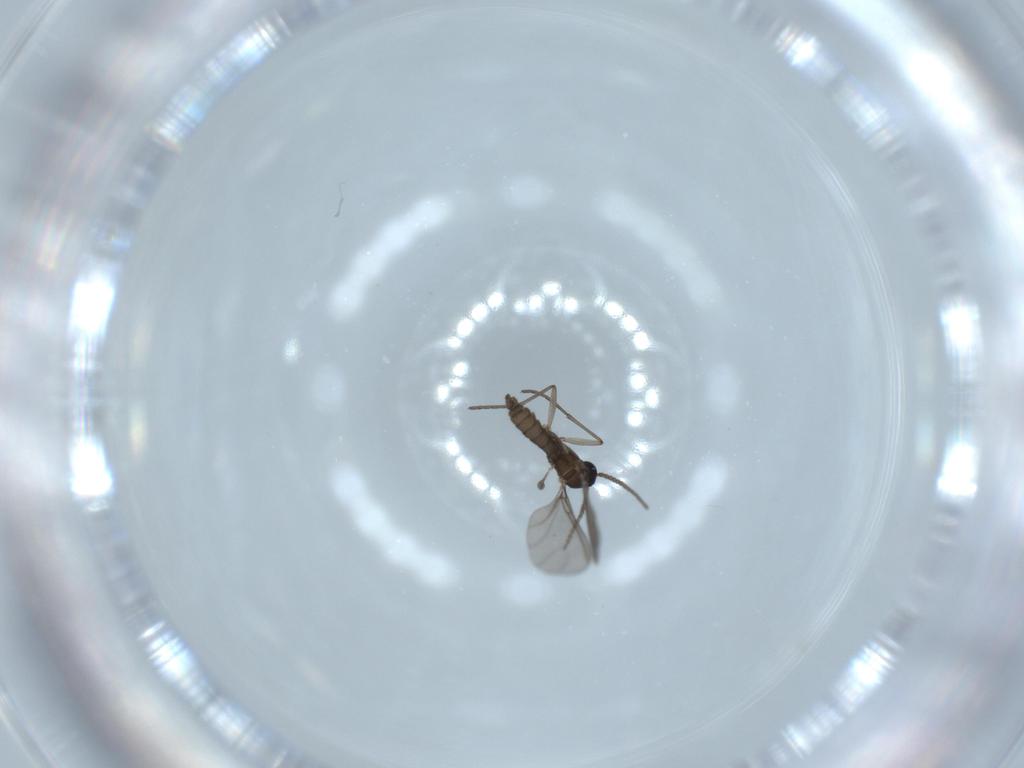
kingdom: Animalia
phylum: Arthropoda
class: Insecta
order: Diptera
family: Sciaridae
